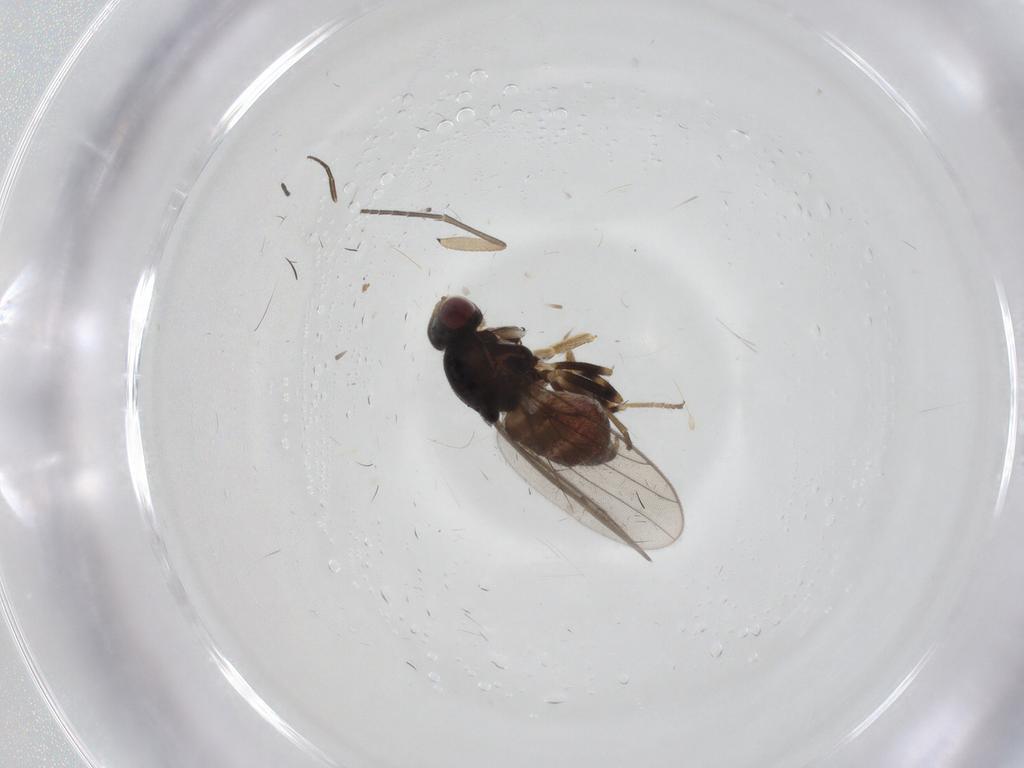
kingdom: Animalia
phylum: Arthropoda
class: Insecta
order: Diptera
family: Chloropidae
